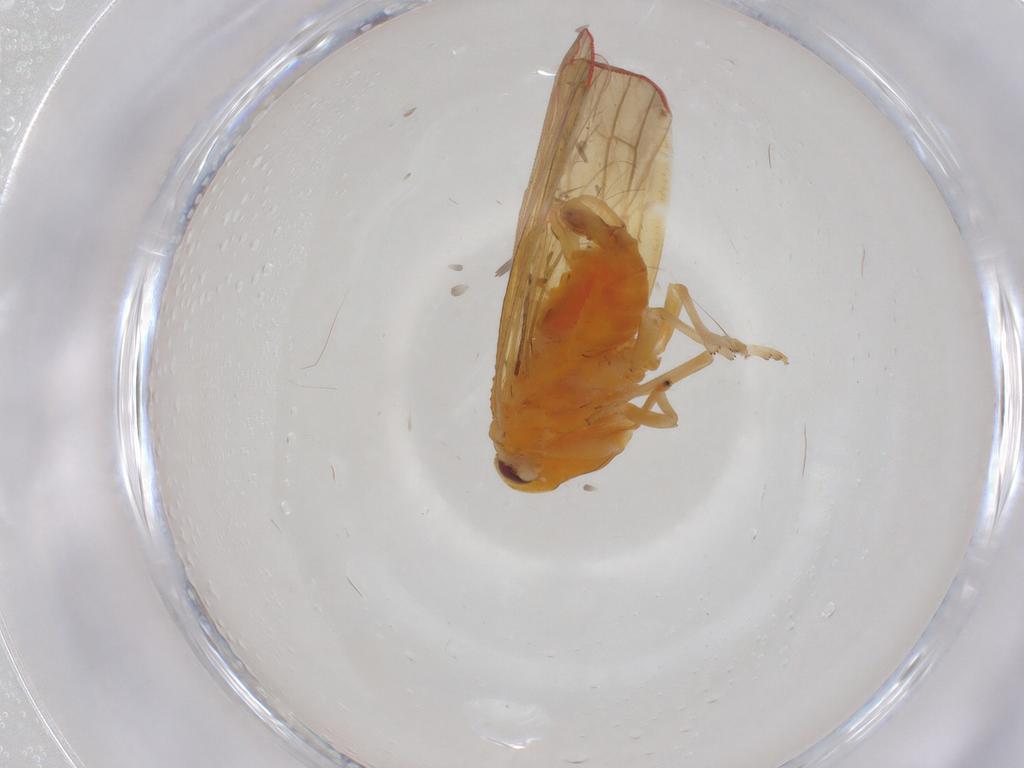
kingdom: Animalia
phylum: Arthropoda
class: Insecta
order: Hemiptera
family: Derbidae
